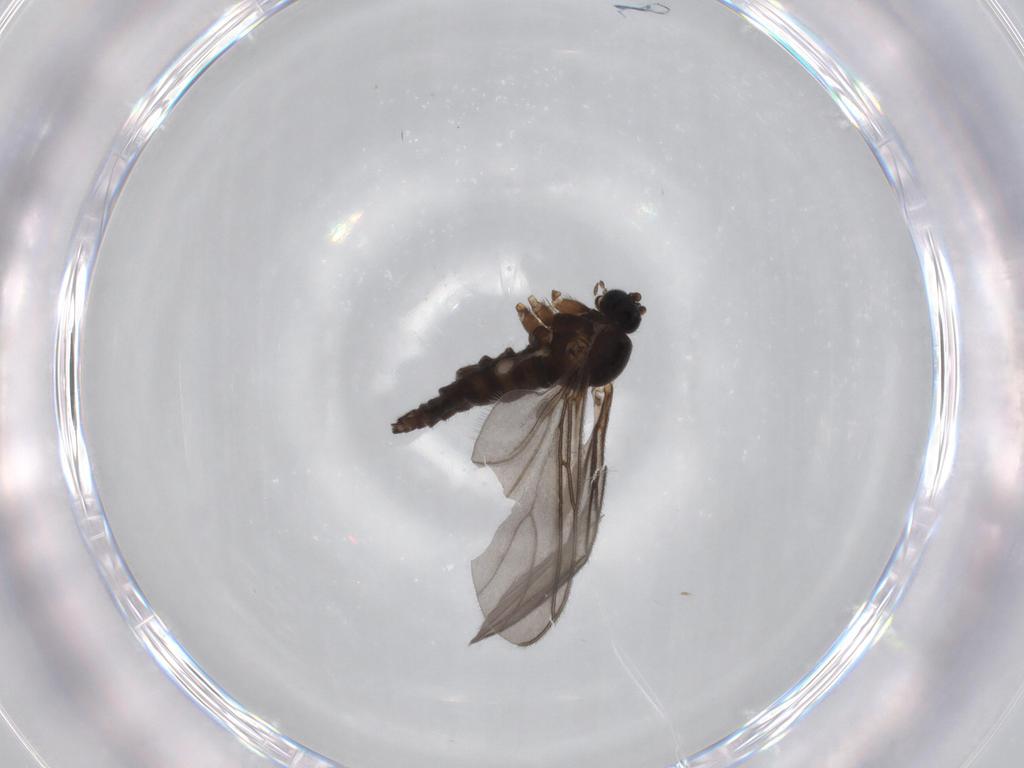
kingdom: Animalia
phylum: Arthropoda
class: Insecta
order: Diptera
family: Sciaridae
